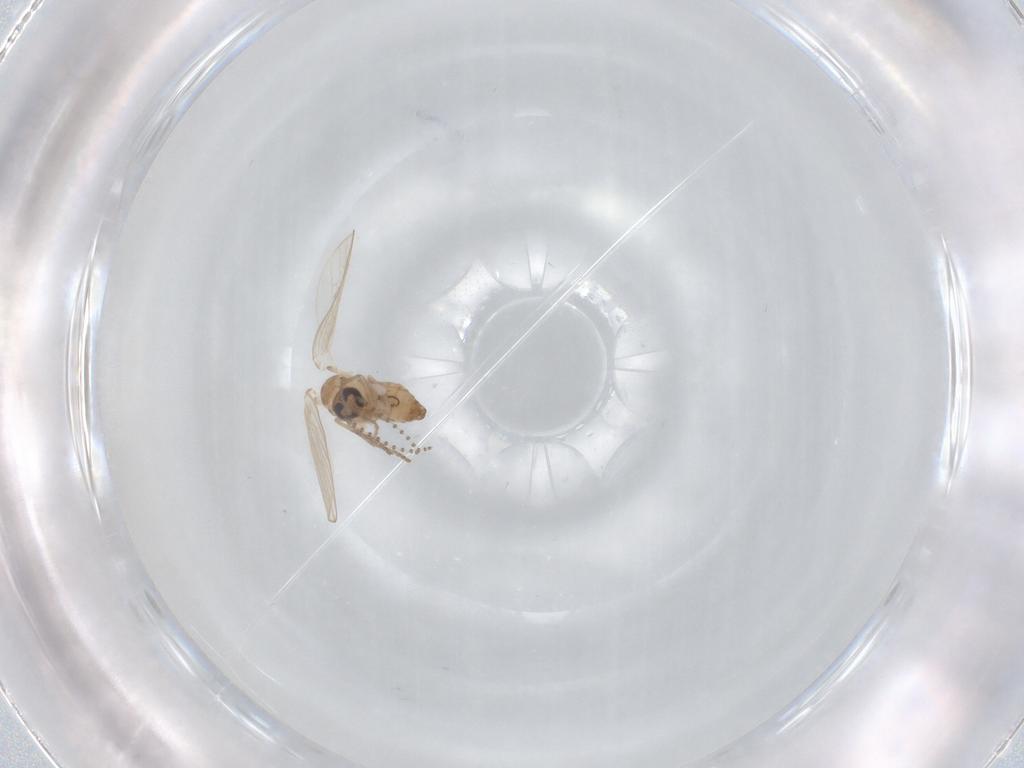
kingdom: Animalia
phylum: Arthropoda
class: Insecta
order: Diptera
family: Psychodidae
